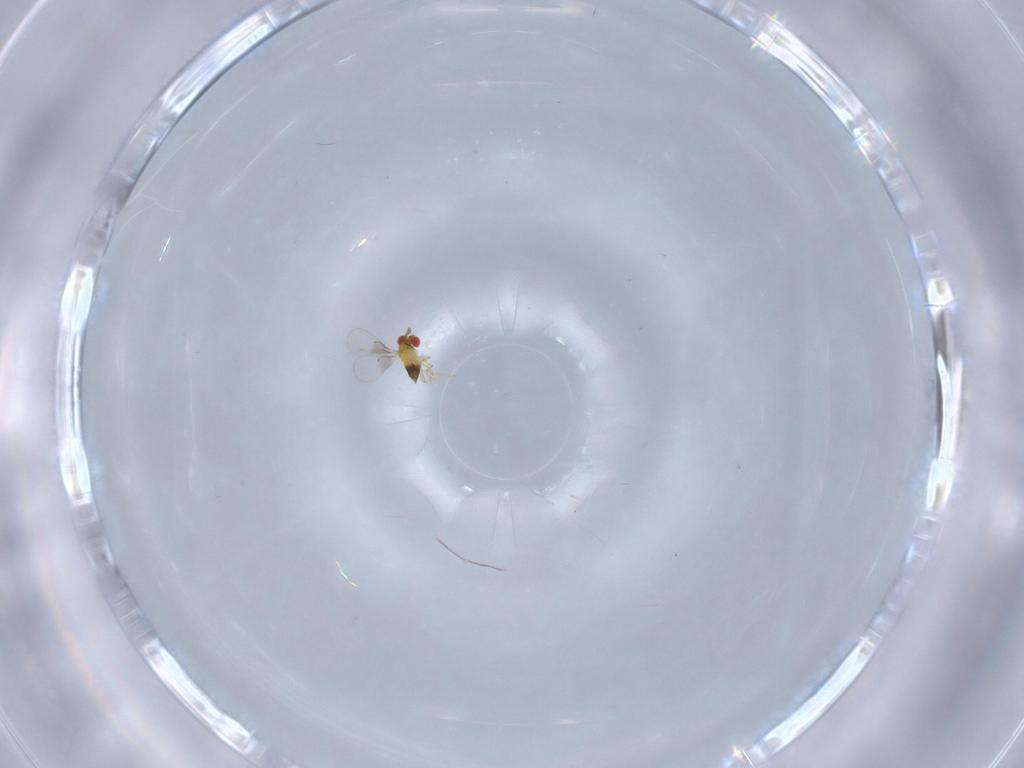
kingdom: Animalia
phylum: Arthropoda
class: Insecta
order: Hymenoptera
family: Trichogrammatidae
